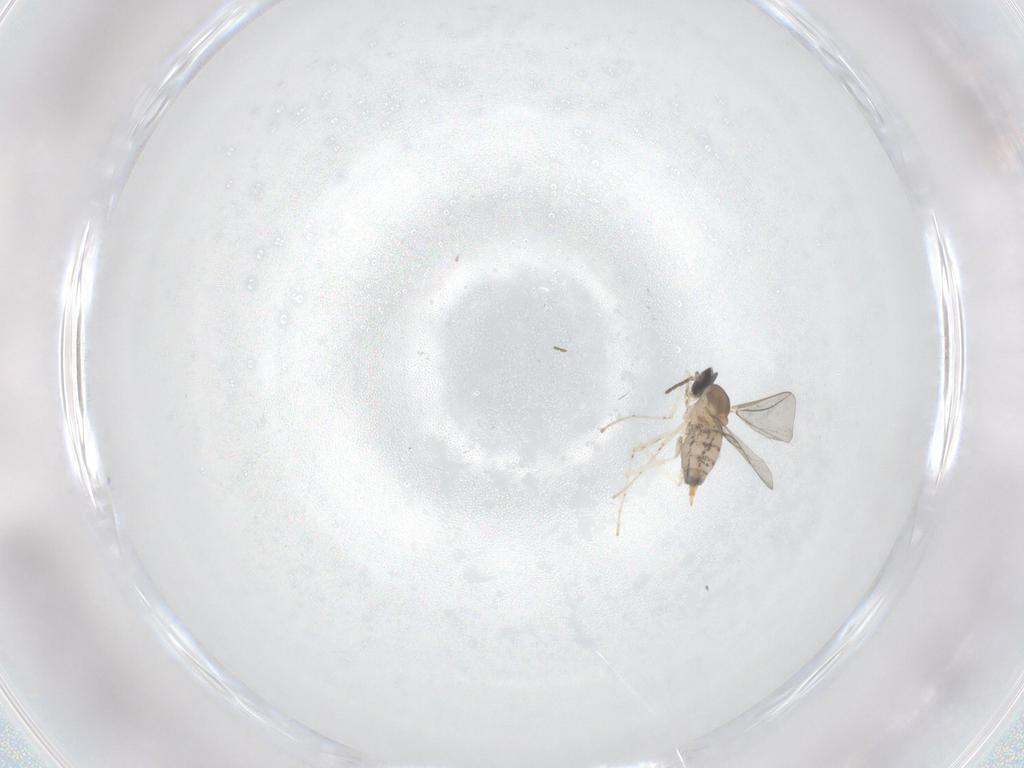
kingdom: Animalia
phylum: Arthropoda
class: Insecta
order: Diptera
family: Cecidomyiidae
